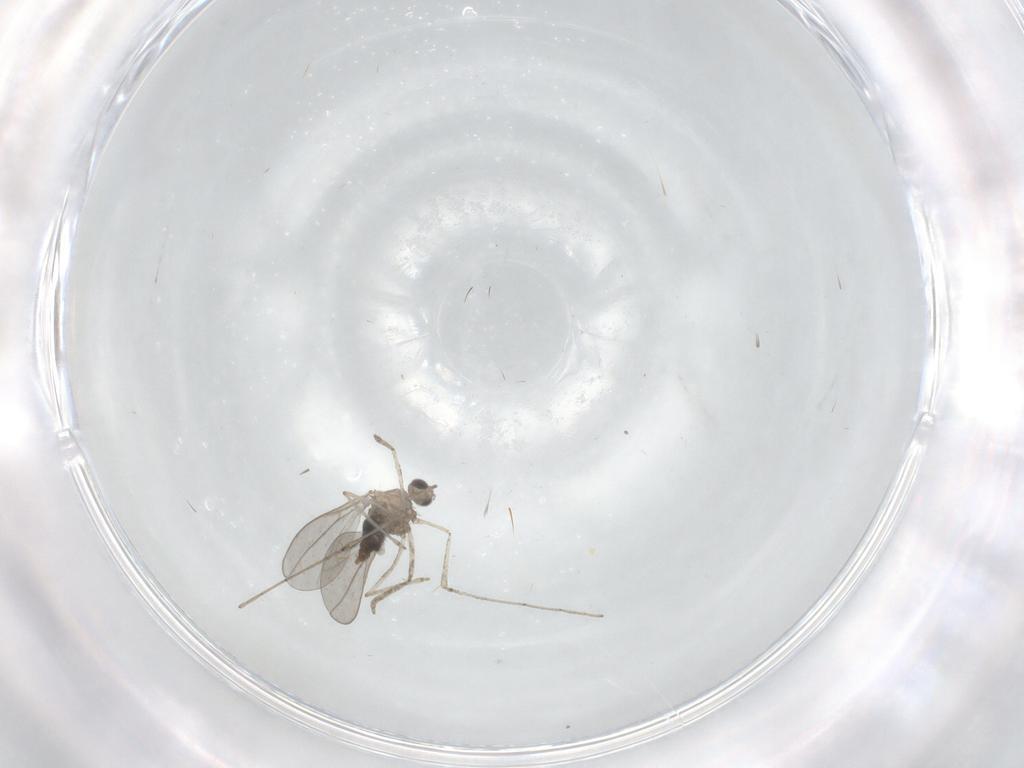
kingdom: Animalia
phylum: Arthropoda
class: Insecta
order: Diptera
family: Cecidomyiidae
